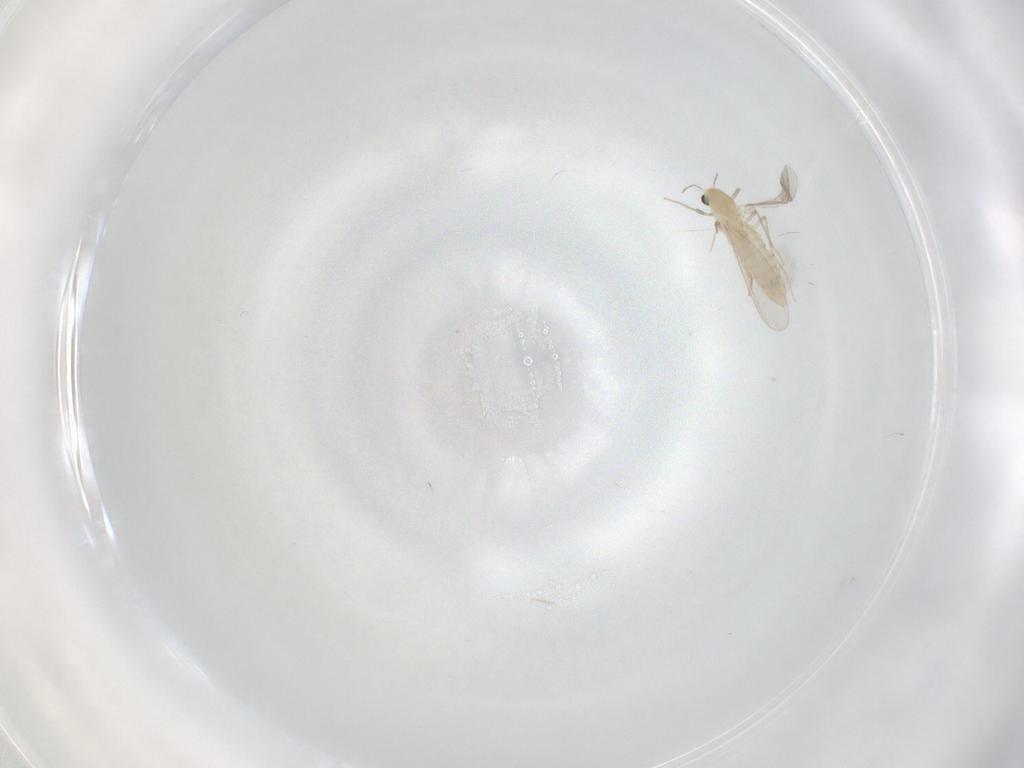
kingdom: Animalia
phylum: Arthropoda
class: Insecta
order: Diptera
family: Chironomidae
